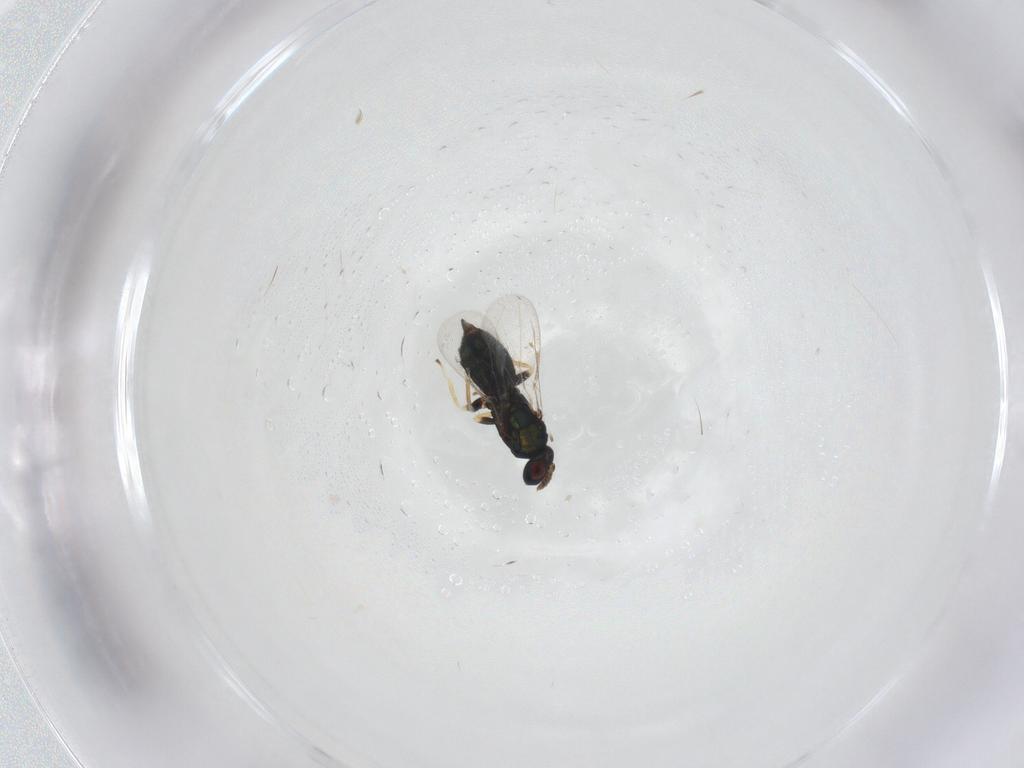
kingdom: Animalia
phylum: Arthropoda
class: Insecta
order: Hymenoptera
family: Eulophidae
